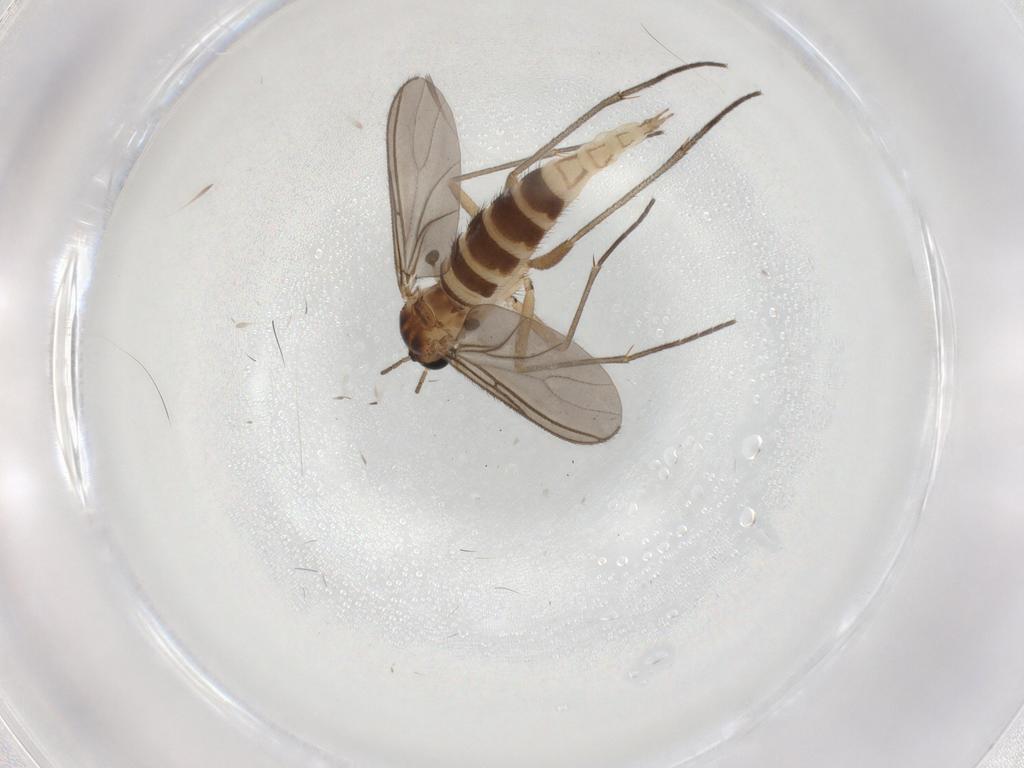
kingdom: Animalia
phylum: Arthropoda
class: Insecta
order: Diptera
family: Sciaridae
